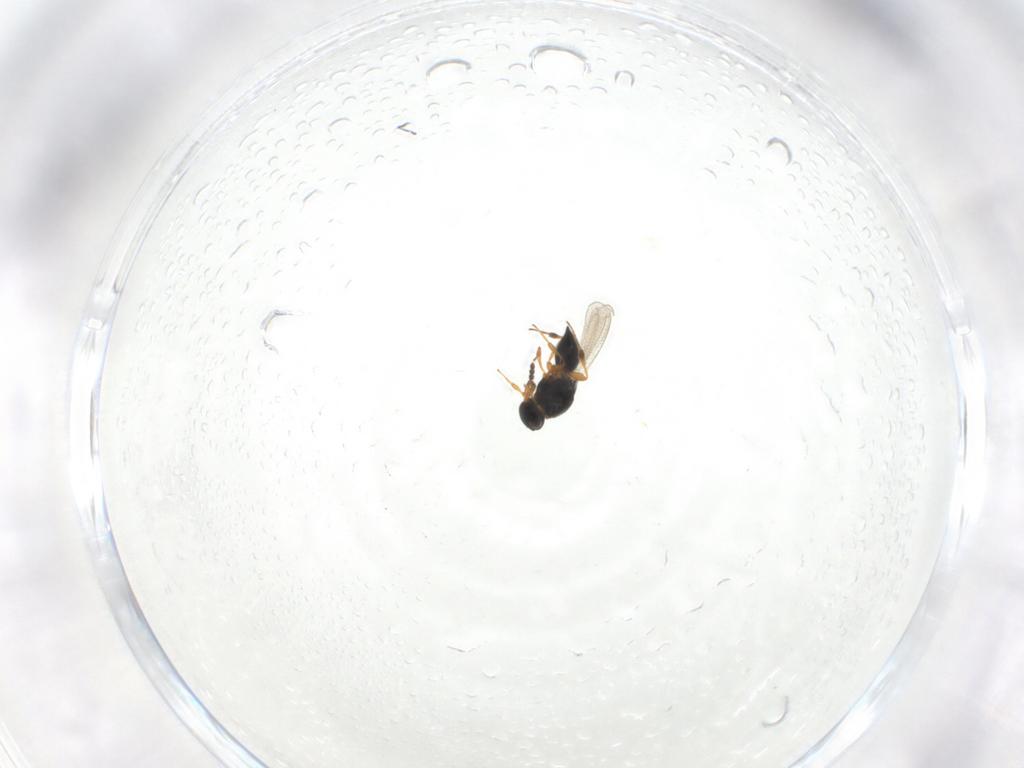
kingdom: Animalia
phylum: Arthropoda
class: Insecta
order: Hymenoptera
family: Platygastridae
